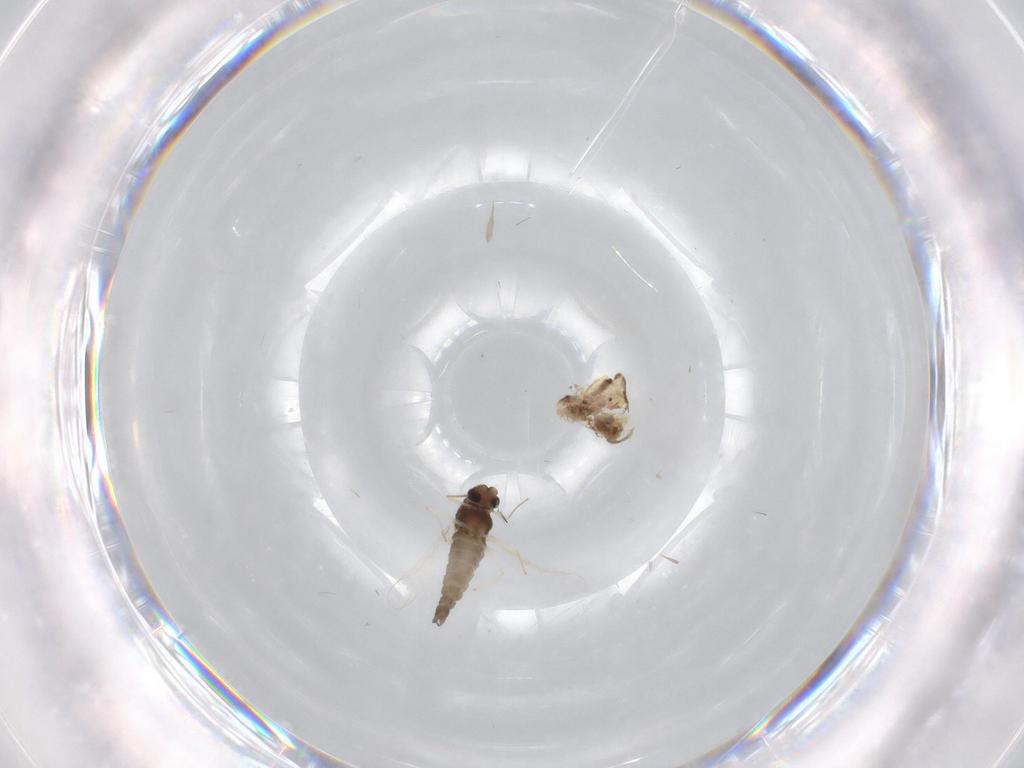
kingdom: Animalia
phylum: Arthropoda
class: Insecta
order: Diptera
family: Chironomidae
